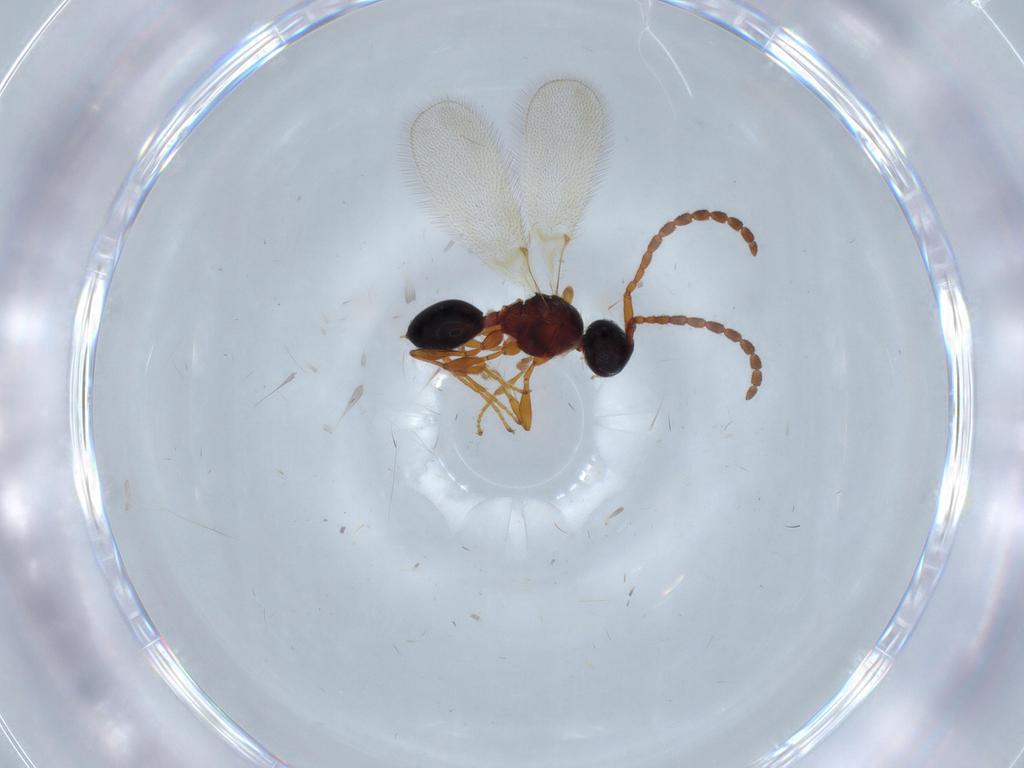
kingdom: Animalia
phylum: Arthropoda
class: Insecta
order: Hymenoptera
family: Diapriidae
